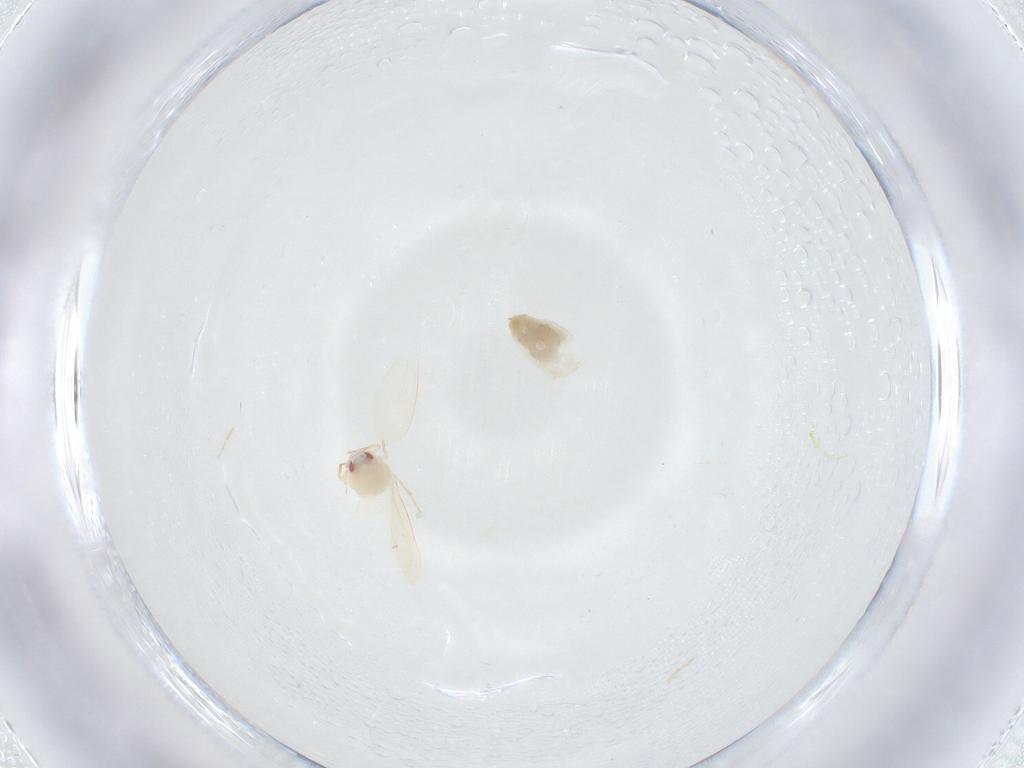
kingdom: Animalia
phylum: Arthropoda
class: Insecta
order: Hemiptera
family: Aleyrodidae
